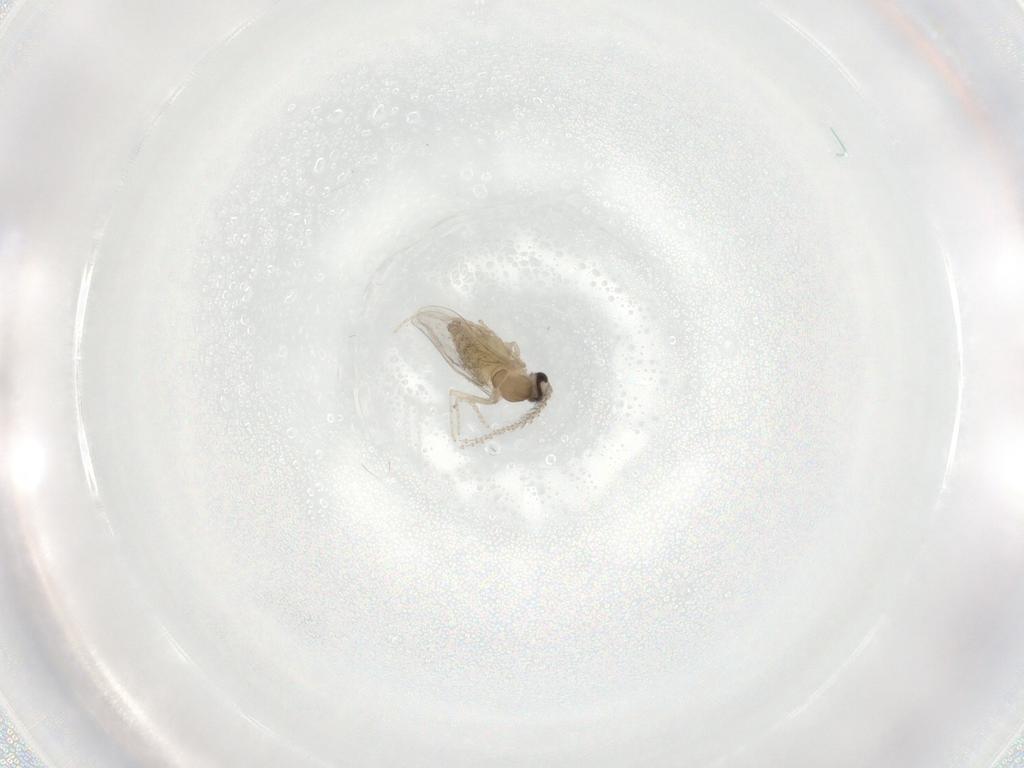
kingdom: Animalia
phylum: Arthropoda
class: Insecta
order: Diptera
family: Cecidomyiidae
